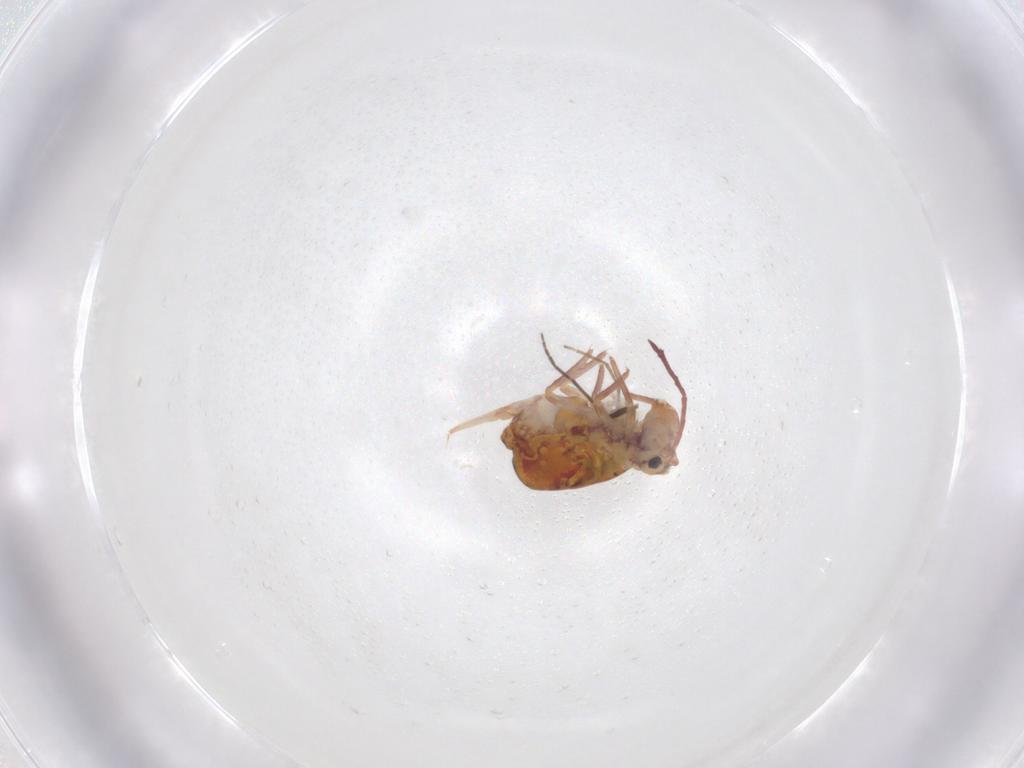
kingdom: Animalia
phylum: Arthropoda
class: Collembola
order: Symphypleona
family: Dicyrtomidae
